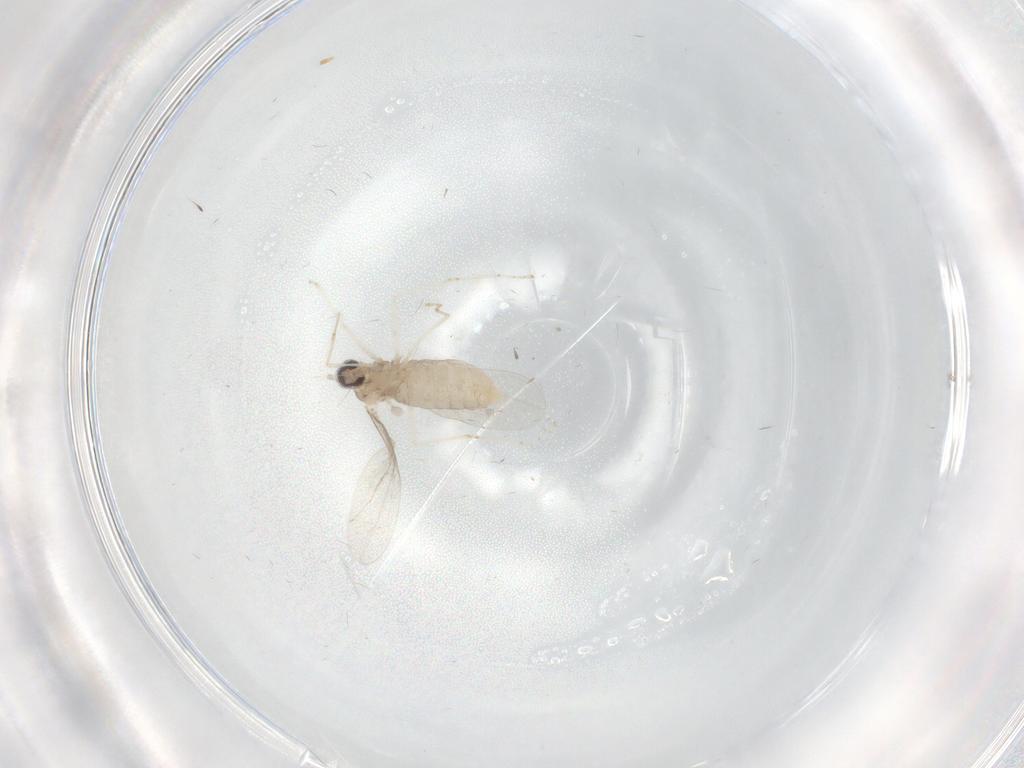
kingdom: Animalia
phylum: Arthropoda
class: Insecta
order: Diptera
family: Cecidomyiidae
